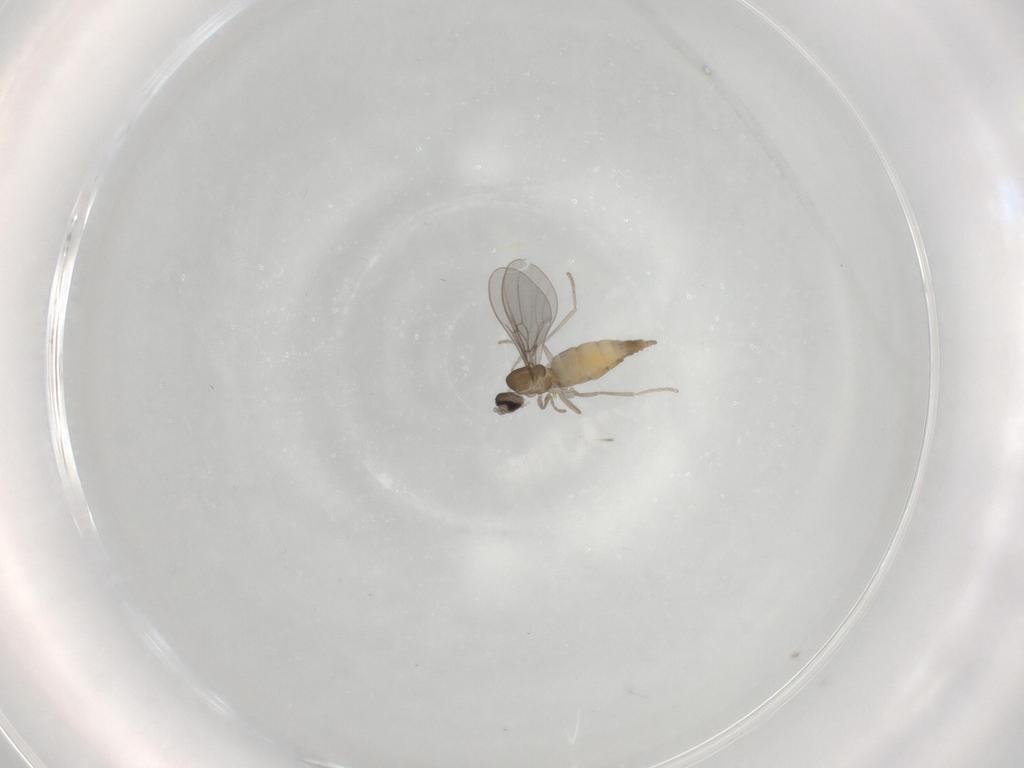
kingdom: Animalia
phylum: Arthropoda
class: Insecta
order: Diptera
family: Cecidomyiidae
